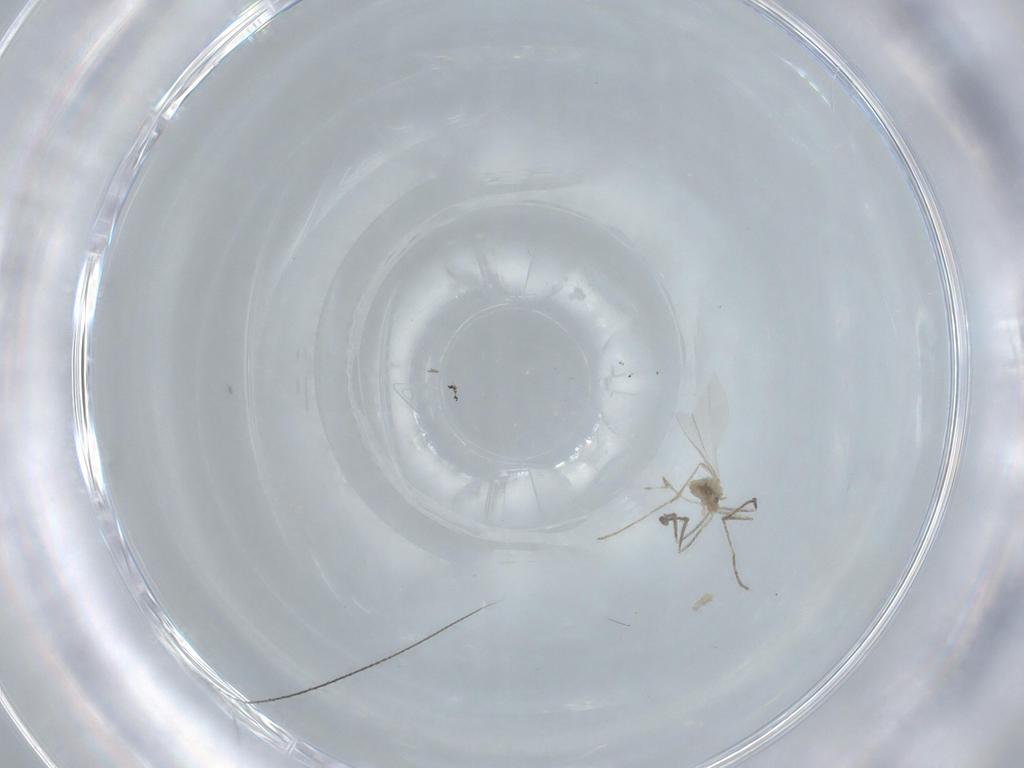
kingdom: Animalia
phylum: Arthropoda
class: Insecta
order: Diptera
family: Cecidomyiidae
